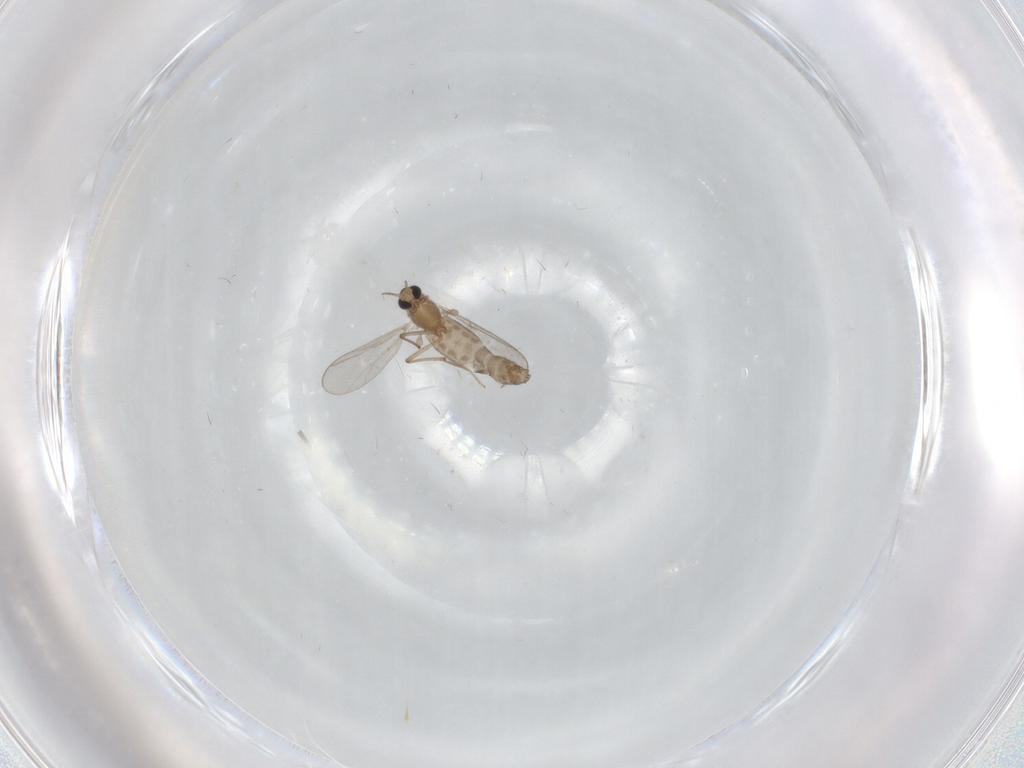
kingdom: Animalia
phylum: Arthropoda
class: Insecta
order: Diptera
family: Chironomidae
